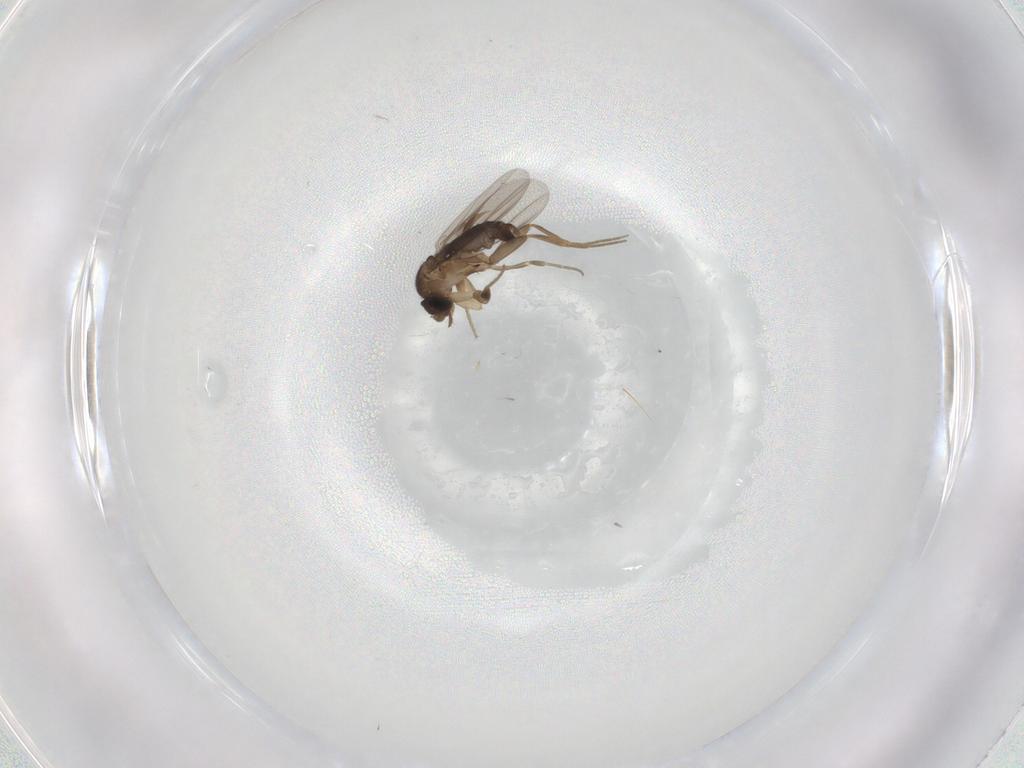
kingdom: Animalia
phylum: Arthropoda
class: Insecta
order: Diptera
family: Phoridae
